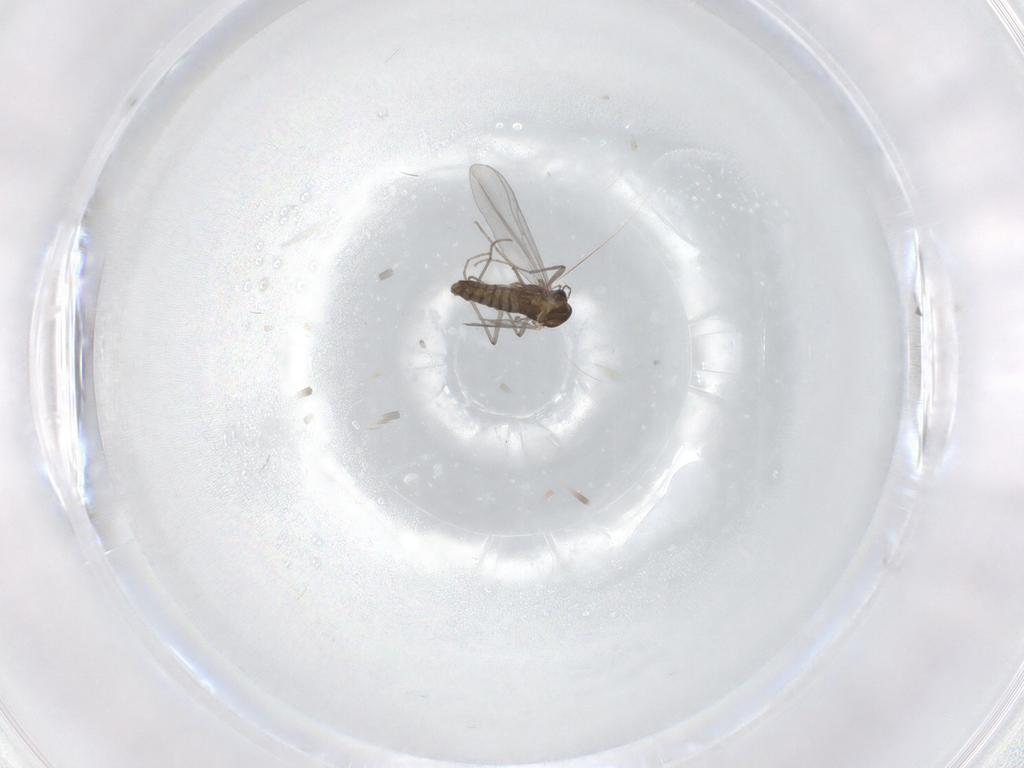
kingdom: Animalia
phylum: Arthropoda
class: Insecta
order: Diptera
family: Chironomidae
